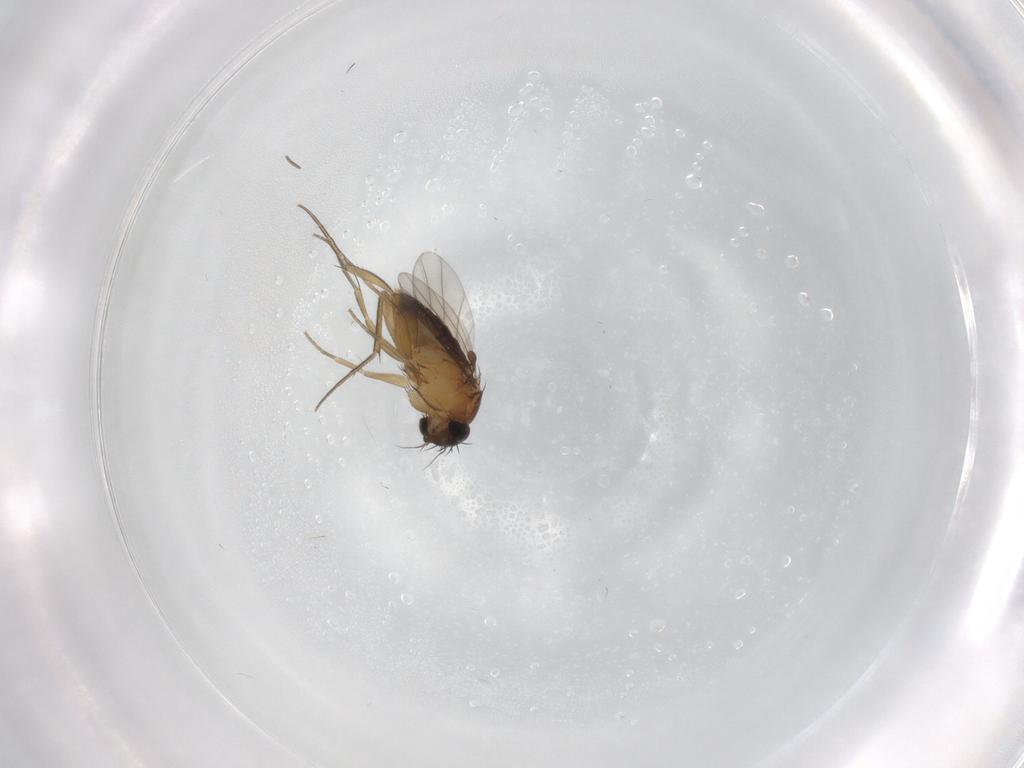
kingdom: Animalia
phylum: Arthropoda
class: Insecta
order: Diptera
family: Phoridae
